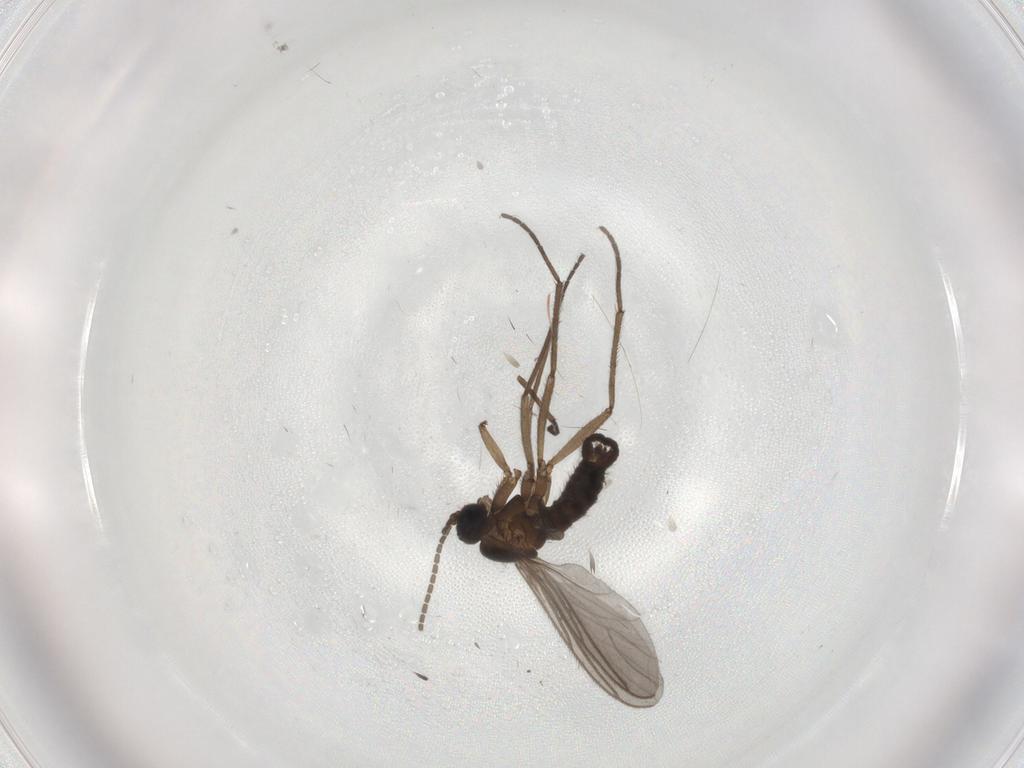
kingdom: Animalia
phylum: Arthropoda
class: Insecta
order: Diptera
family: Sciaridae
